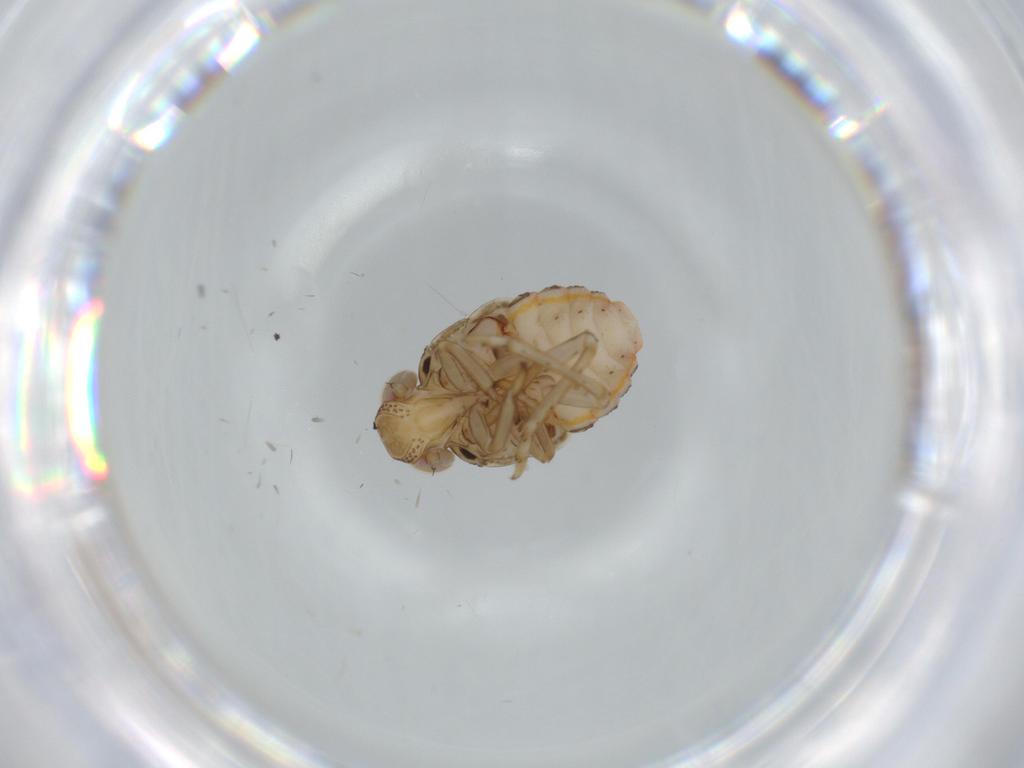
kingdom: Animalia
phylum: Arthropoda
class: Insecta
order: Hemiptera
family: Issidae
